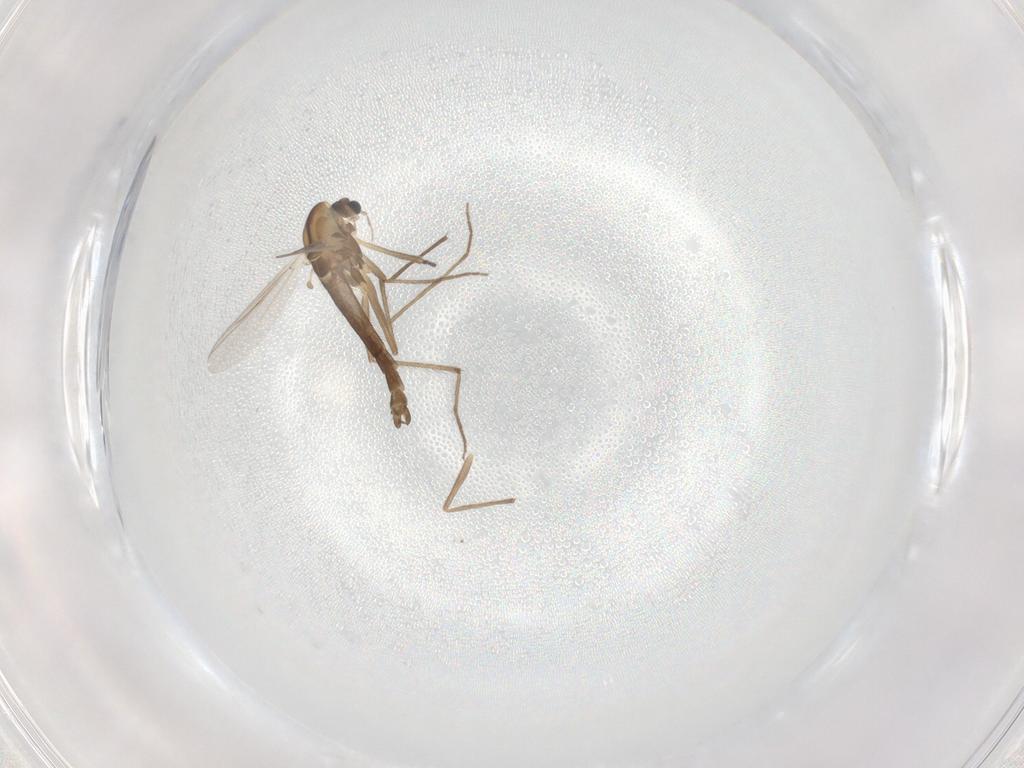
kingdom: Animalia
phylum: Arthropoda
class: Insecta
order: Diptera
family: Chironomidae
